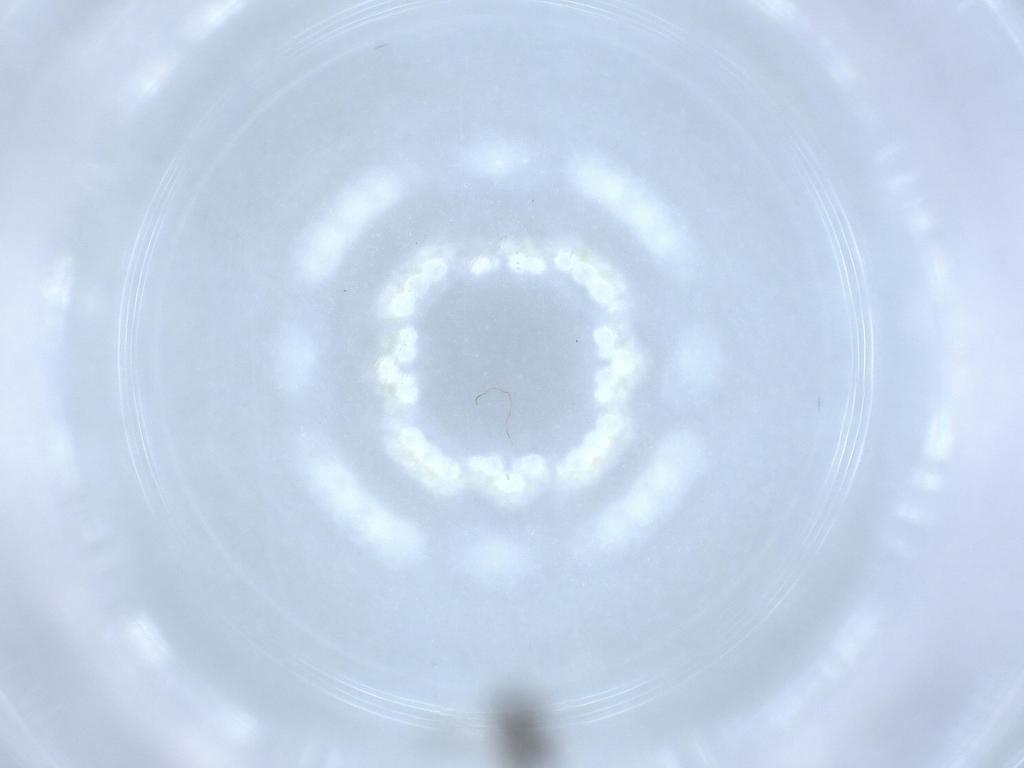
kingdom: Animalia
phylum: Arthropoda
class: Insecta
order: Hymenoptera
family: Scelionidae
